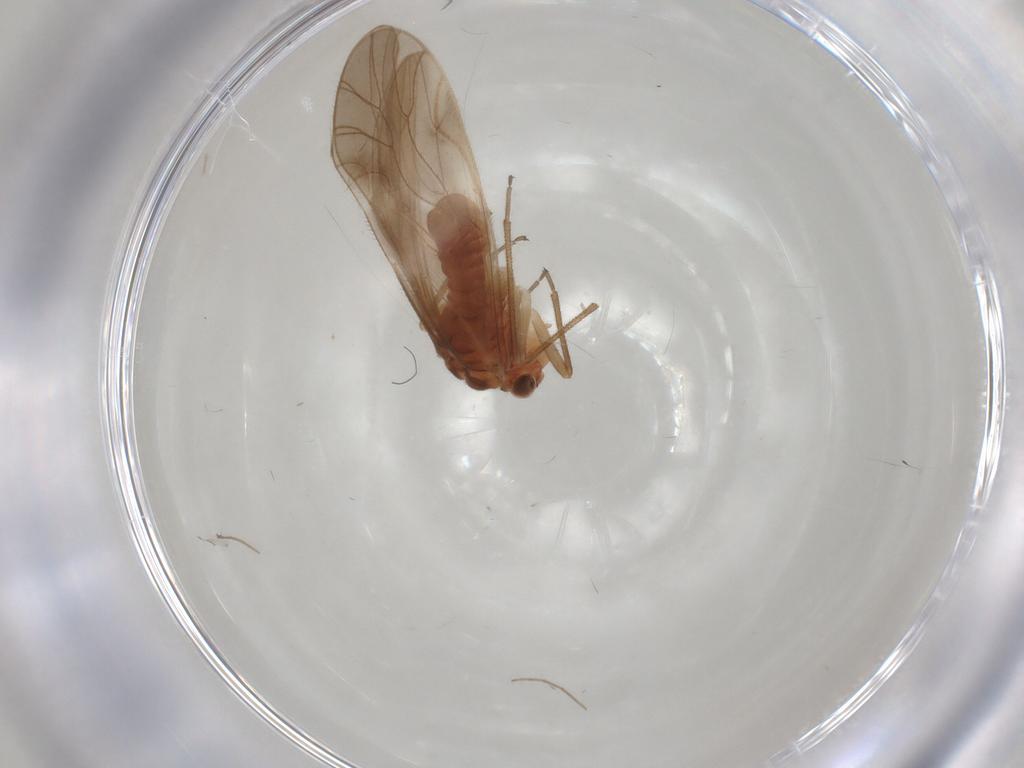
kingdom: Animalia
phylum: Arthropoda
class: Insecta
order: Psocodea
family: Caeciliusidae
